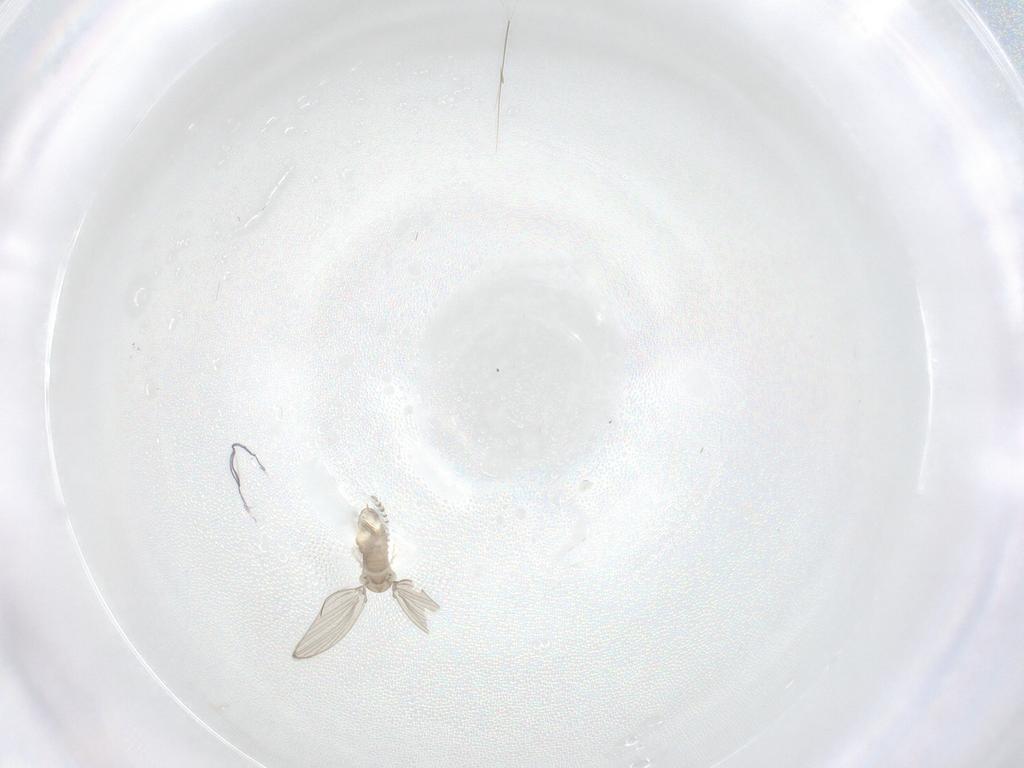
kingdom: Animalia
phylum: Arthropoda
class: Insecta
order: Diptera
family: Psychodidae
